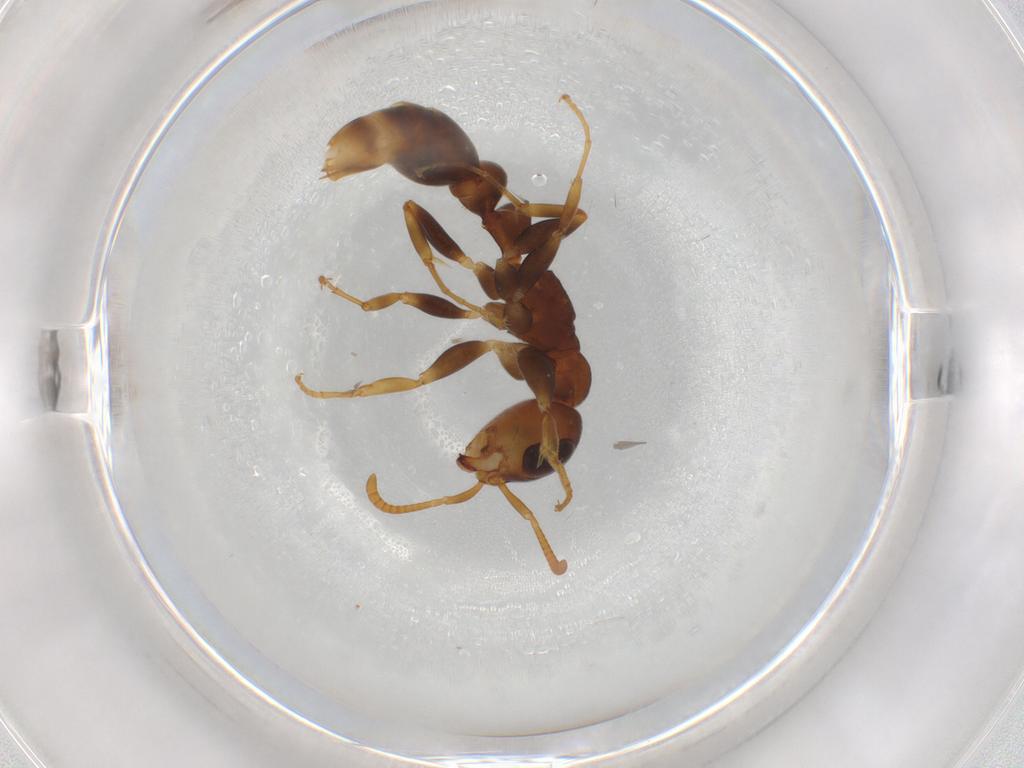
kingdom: Animalia
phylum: Arthropoda
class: Insecta
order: Hymenoptera
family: Formicidae
